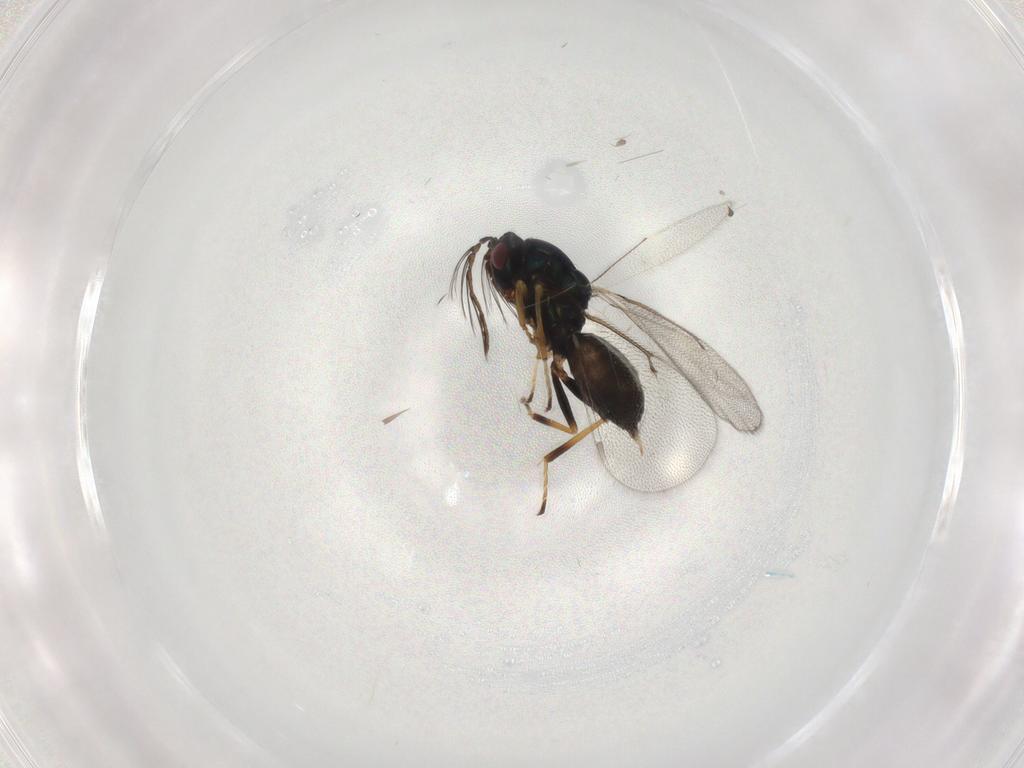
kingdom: Animalia
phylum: Arthropoda
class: Insecta
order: Hymenoptera
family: Eulophidae
